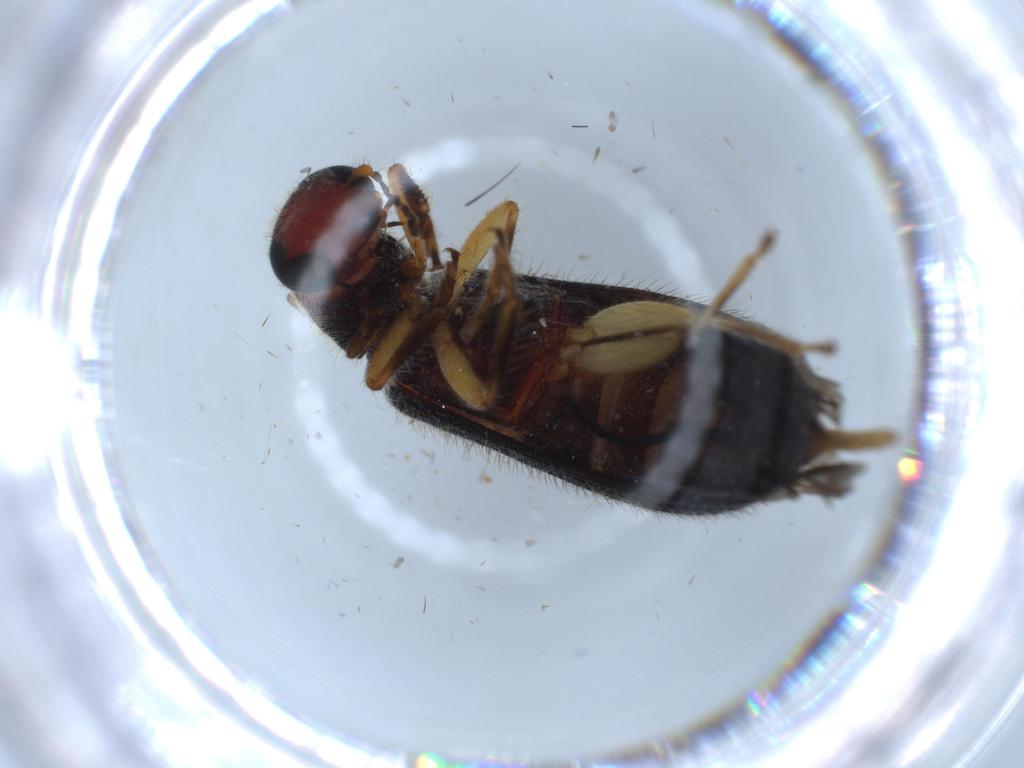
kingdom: Animalia
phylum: Arthropoda
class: Insecta
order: Coleoptera
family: Cleridae
